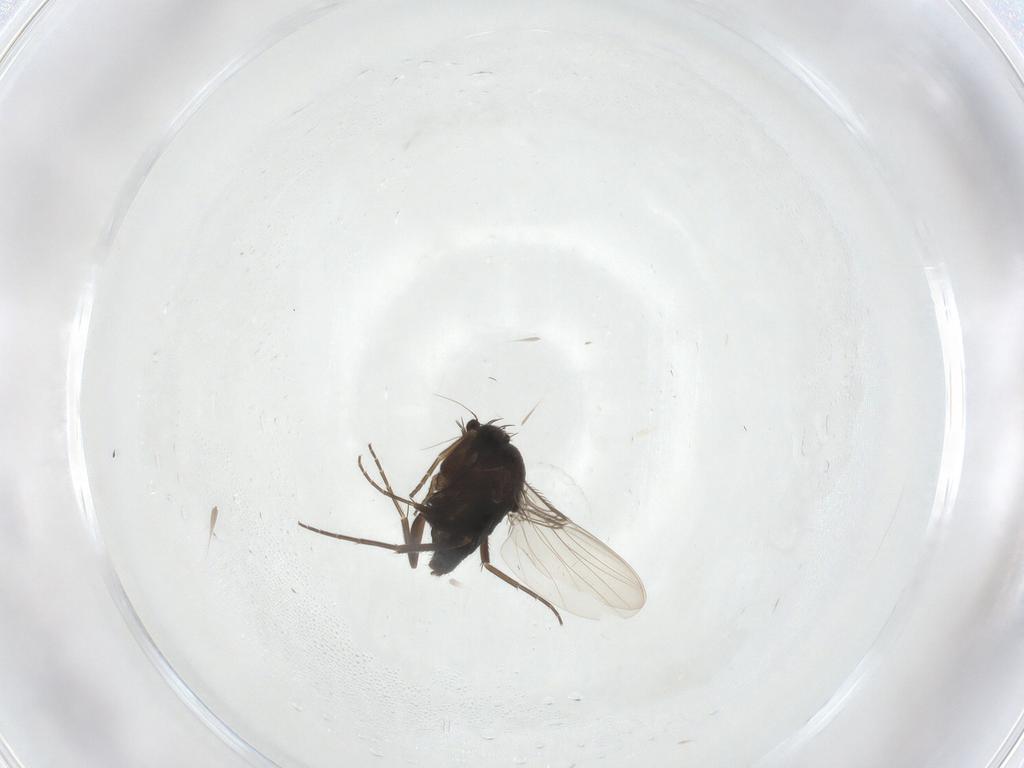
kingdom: Animalia
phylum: Arthropoda
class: Insecta
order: Diptera
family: Phoridae
